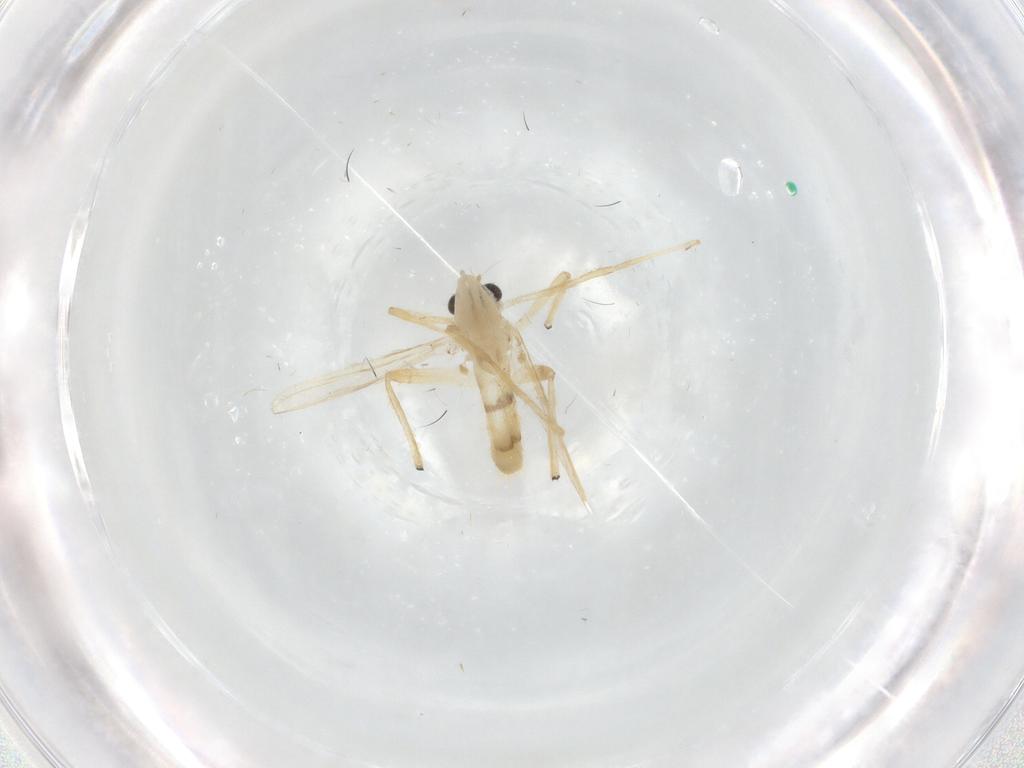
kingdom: Animalia
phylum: Arthropoda
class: Insecta
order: Diptera
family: Chironomidae
